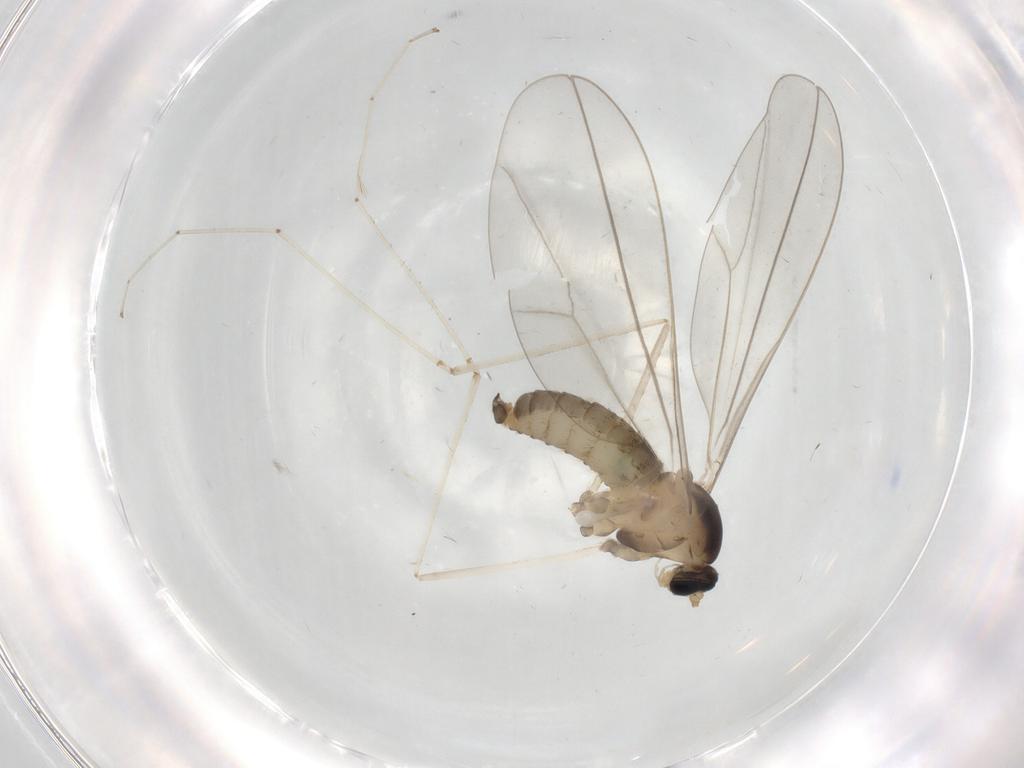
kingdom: Animalia
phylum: Arthropoda
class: Insecta
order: Diptera
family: Cecidomyiidae
